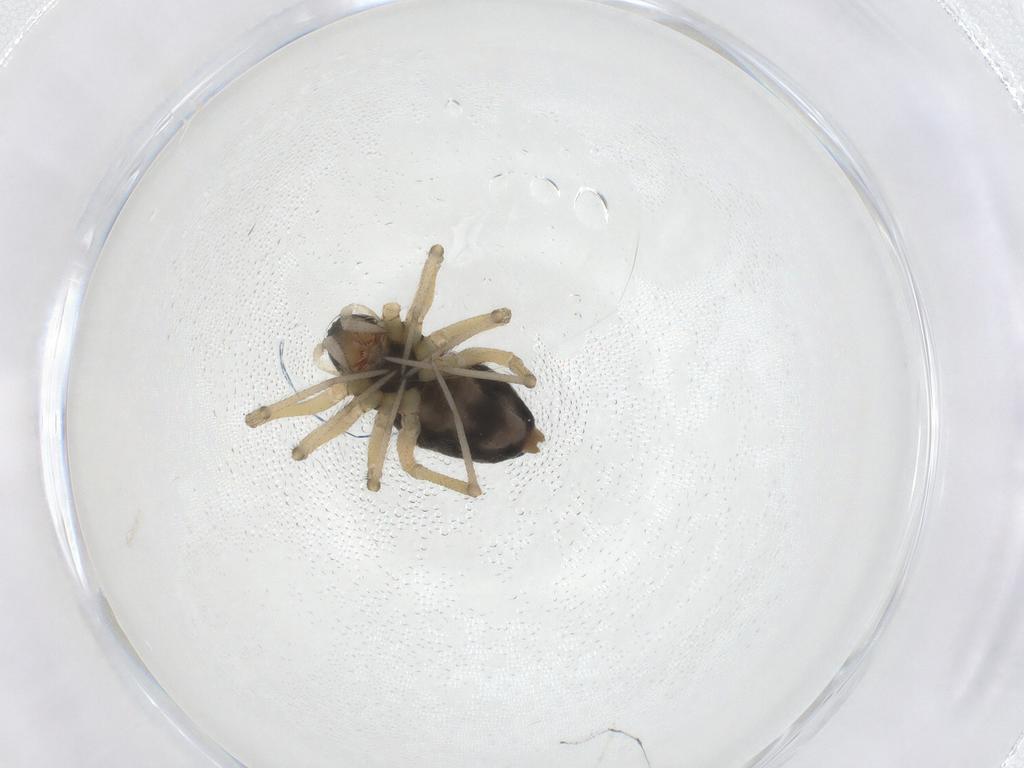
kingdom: Animalia
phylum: Arthropoda
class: Arachnida
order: Araneae
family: Linyphiidae
